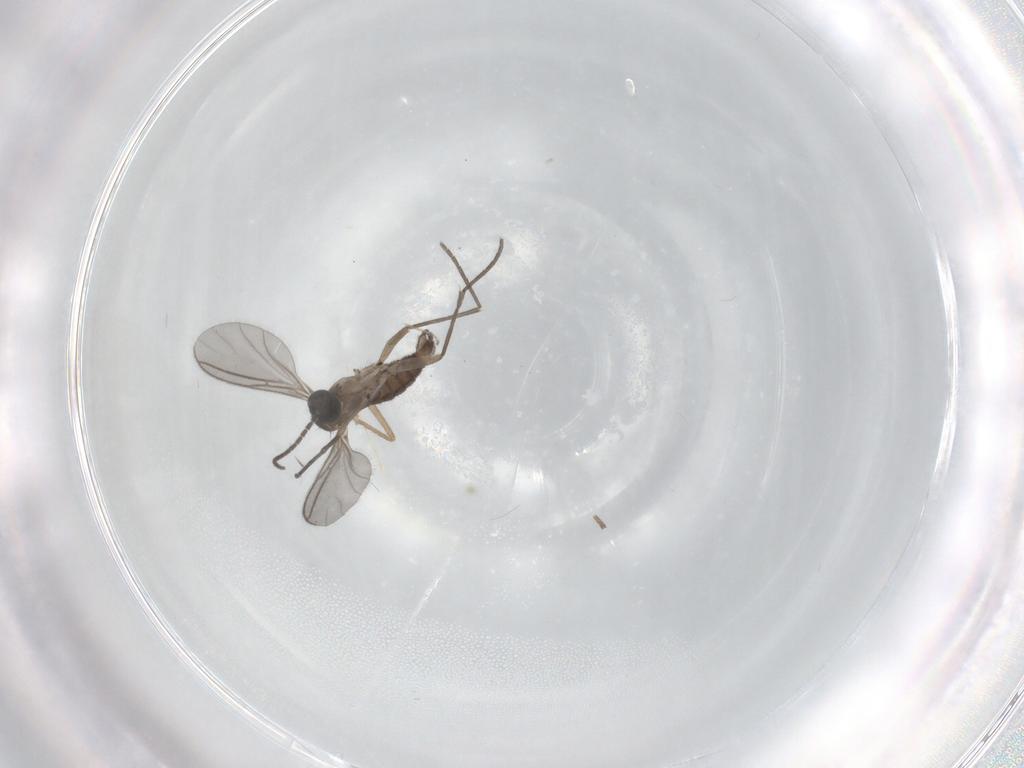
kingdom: Animalia
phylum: Arthropoda
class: Insecta
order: Diptera
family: Sciaridae
